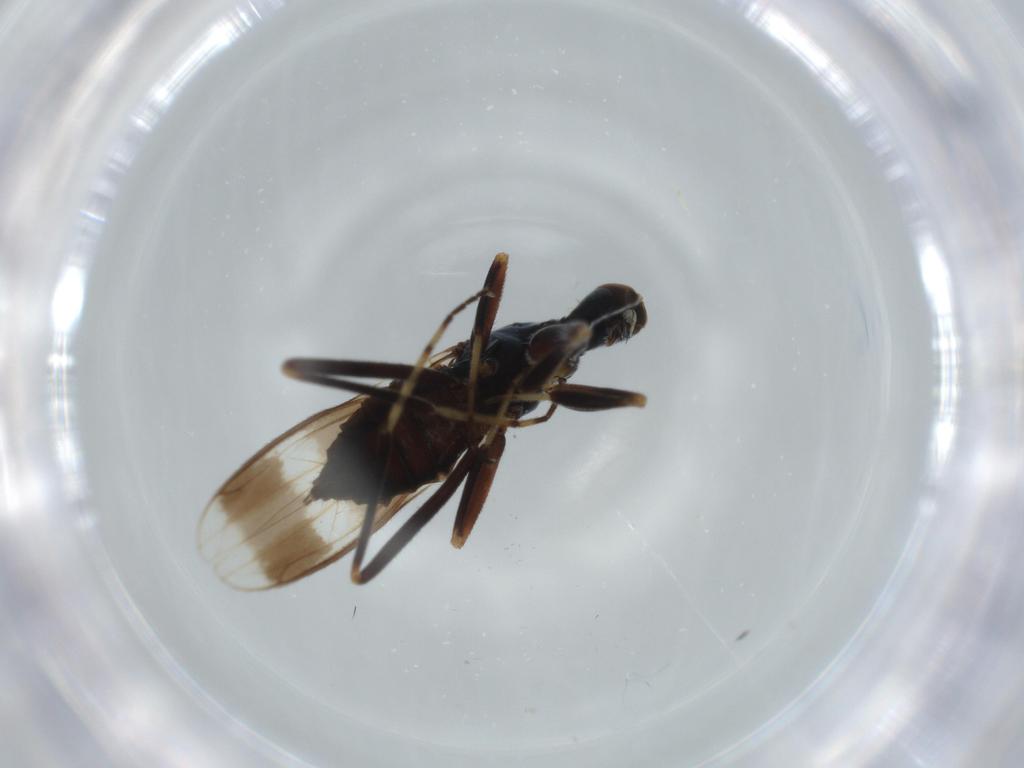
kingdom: Animalia
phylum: Arthropoda
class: Insecta
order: Diptera
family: Hybotidae
